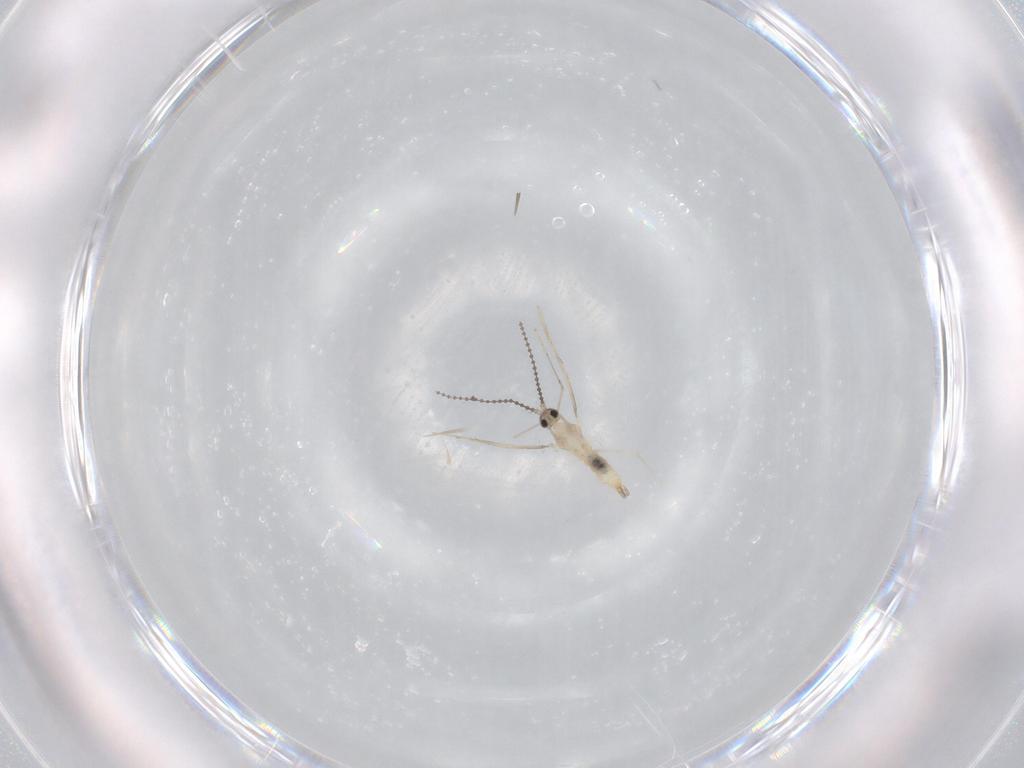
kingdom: Animalia
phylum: Arthropoda
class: Insecta
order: Diptera
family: Cecidomyiidae
